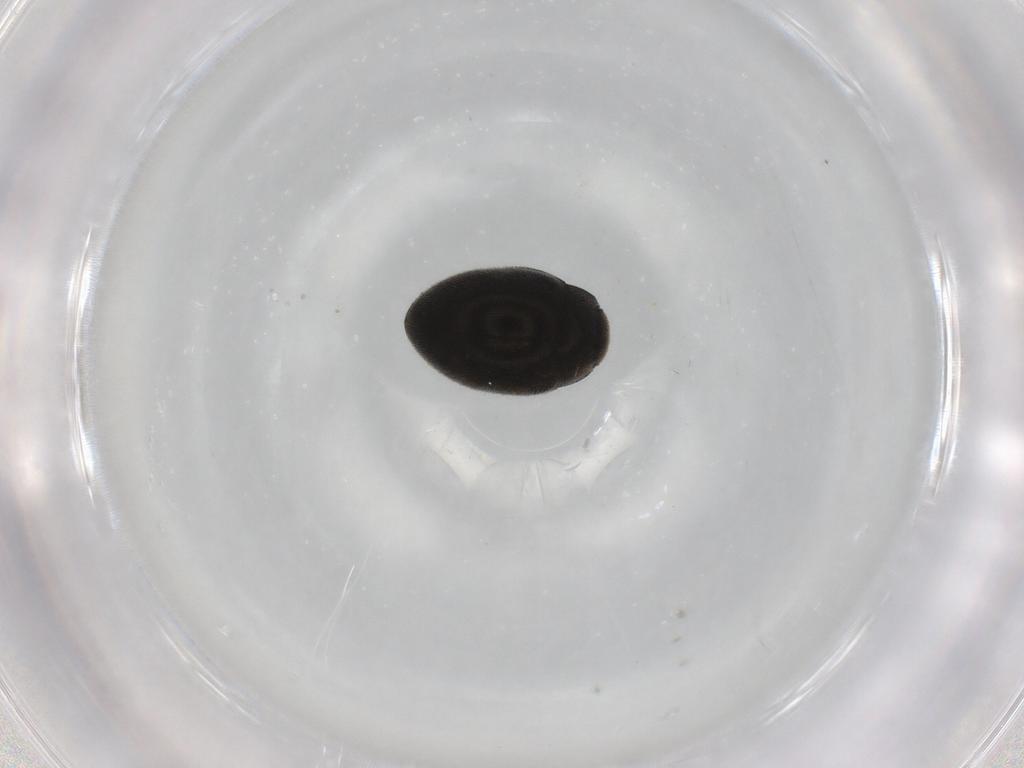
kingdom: Animalia
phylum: Arthropoda
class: Insecta
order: Coleoptera
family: Limnichidae
